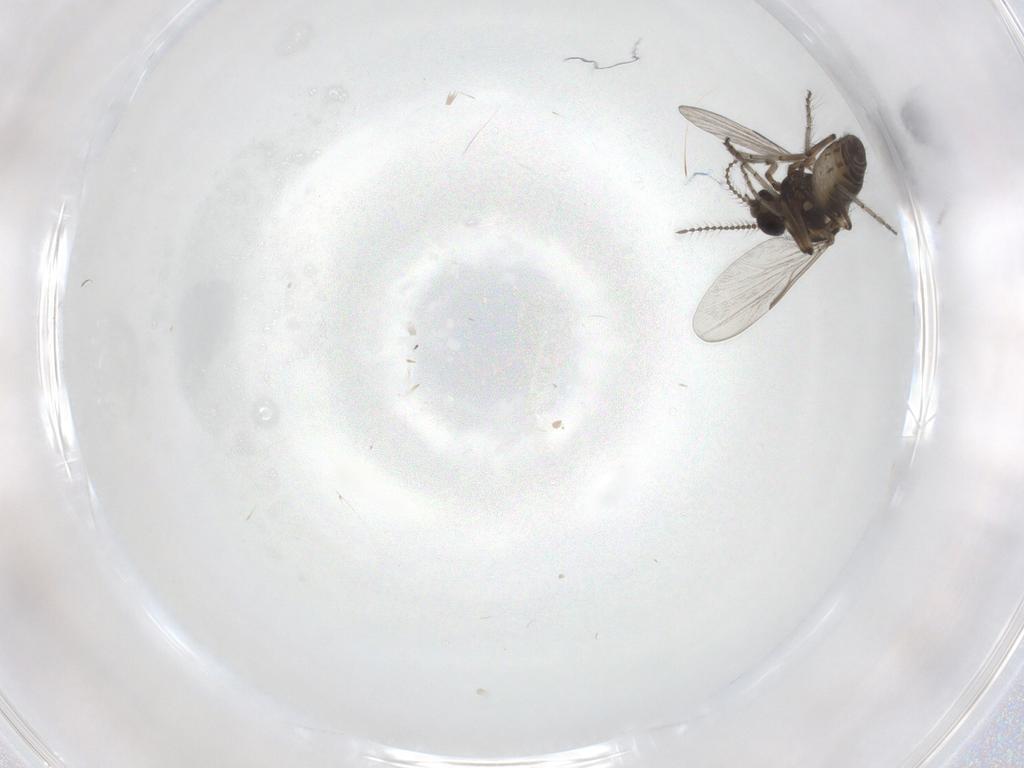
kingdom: Animalia
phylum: Arthropoda
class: Insecta
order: Diptera
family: Ceratopogonidae
